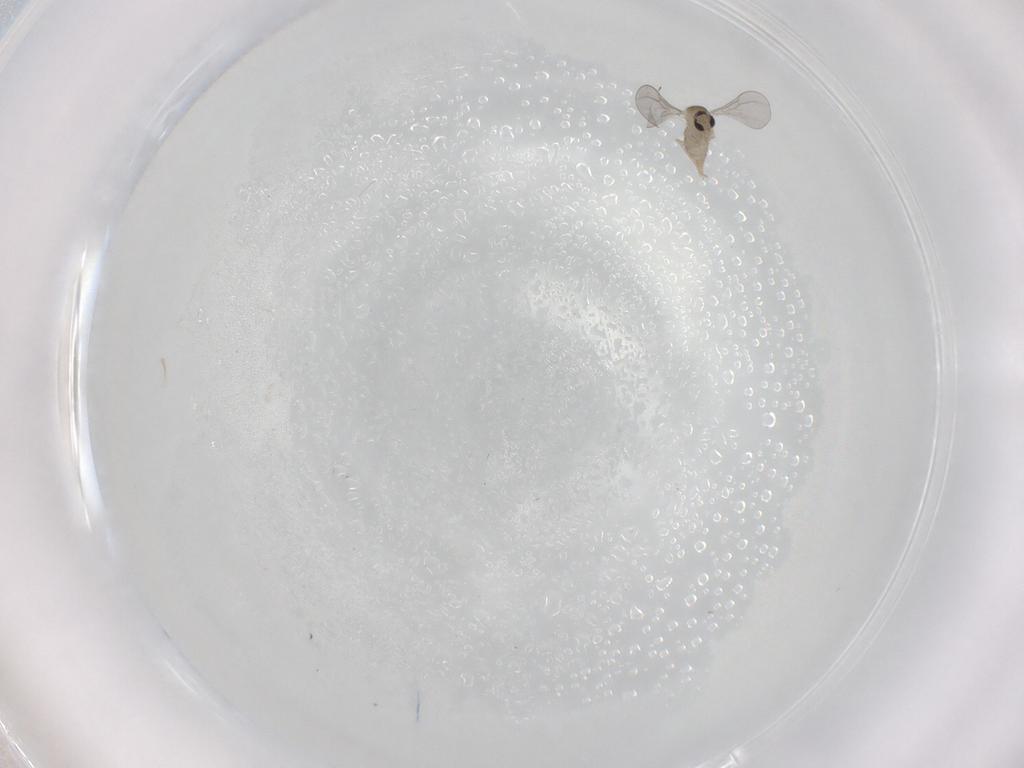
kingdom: Animalia
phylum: Arthropoda
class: Insecta
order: Diptera
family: Cecidomyiidae
